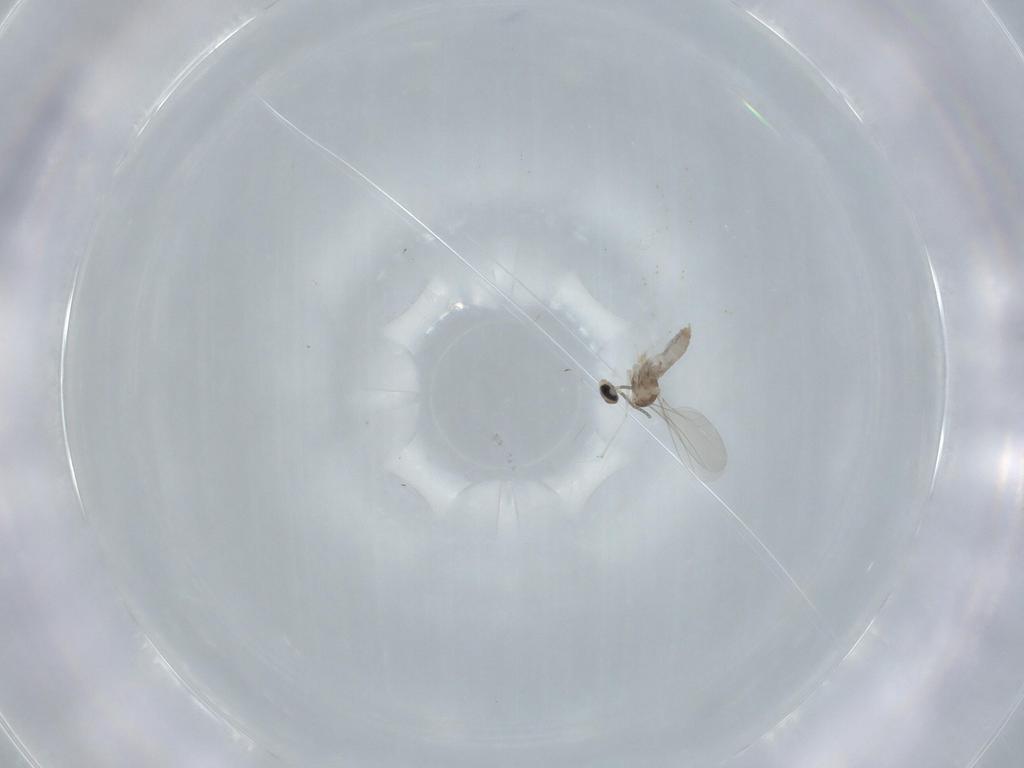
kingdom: Animalia
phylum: Arthropoda
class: Insecta
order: Diptera
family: Cecidomyiidae
